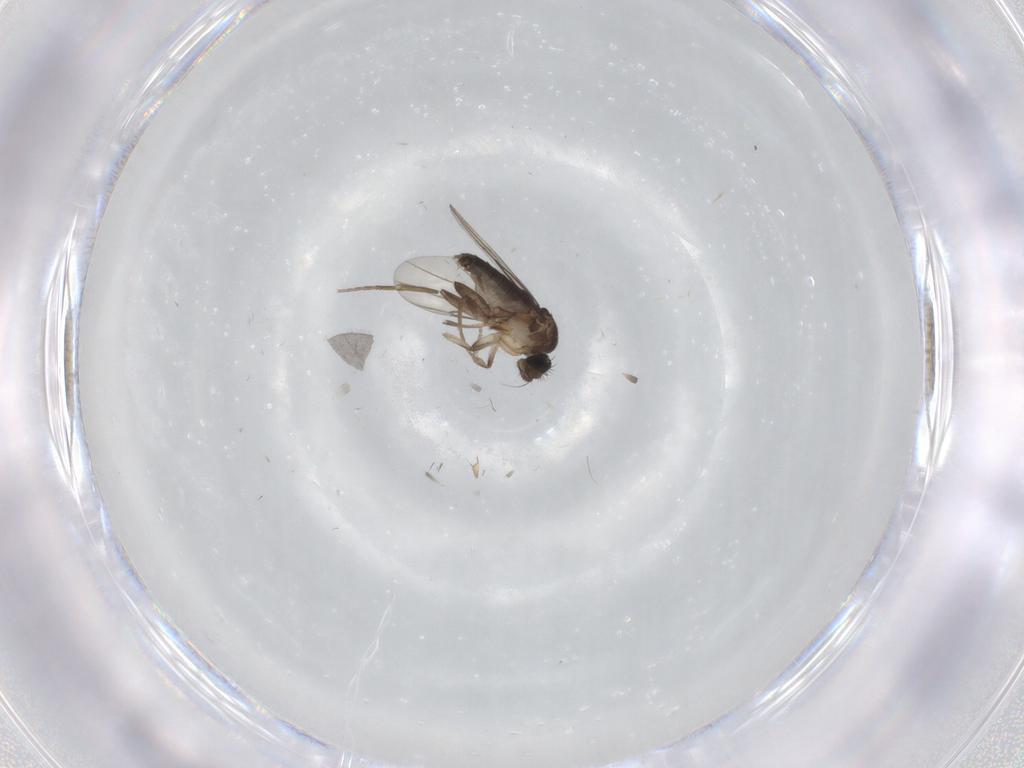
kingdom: Animalia
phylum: Arthropoda
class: Insecta
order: Diptera
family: Phoridae
